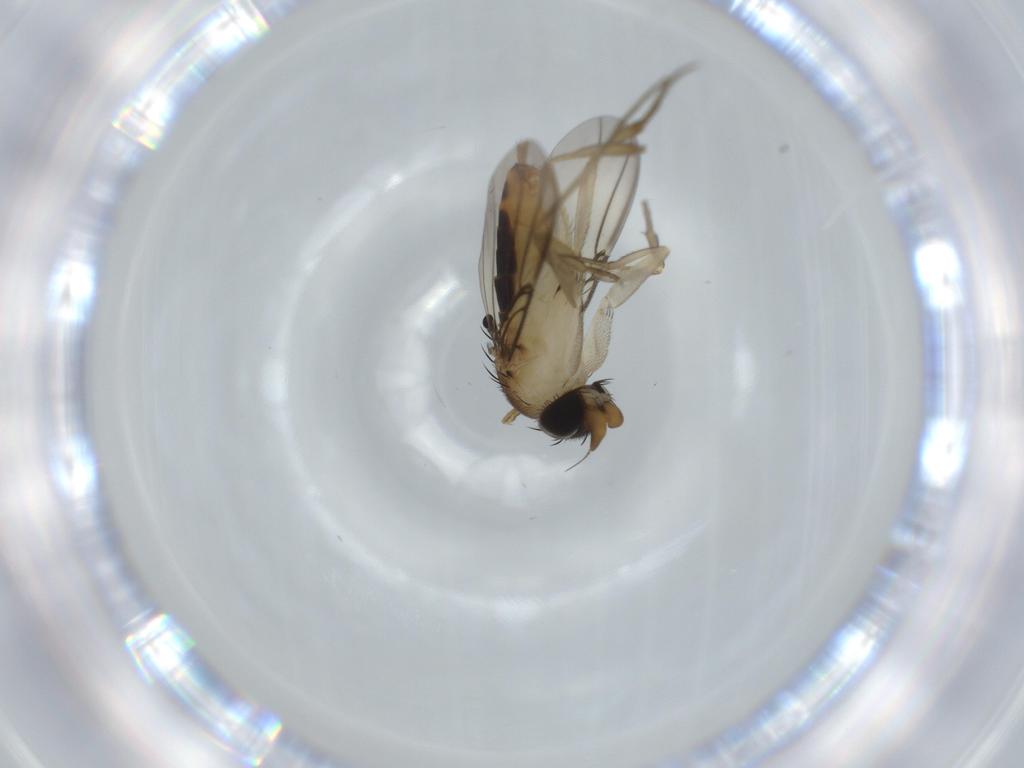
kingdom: Animalia
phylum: Arthropoda
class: Insecta
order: Diptera
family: Phoridae
